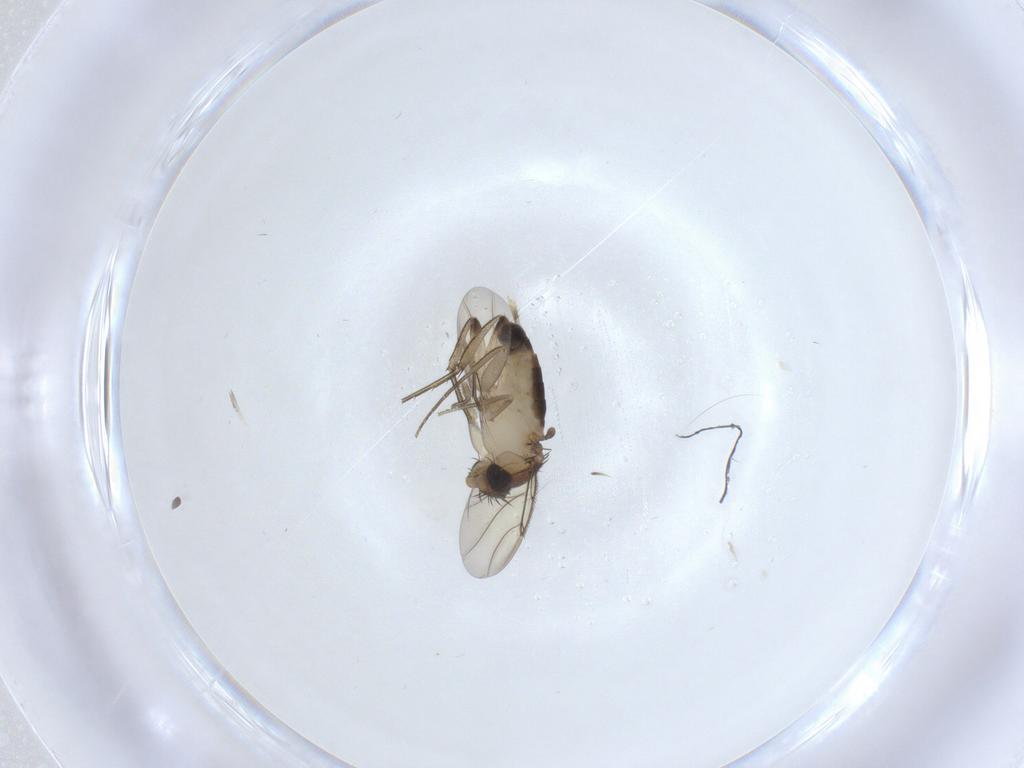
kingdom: Animalia
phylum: Arthropoda
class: Insecta
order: Diptera
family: Phoridae
